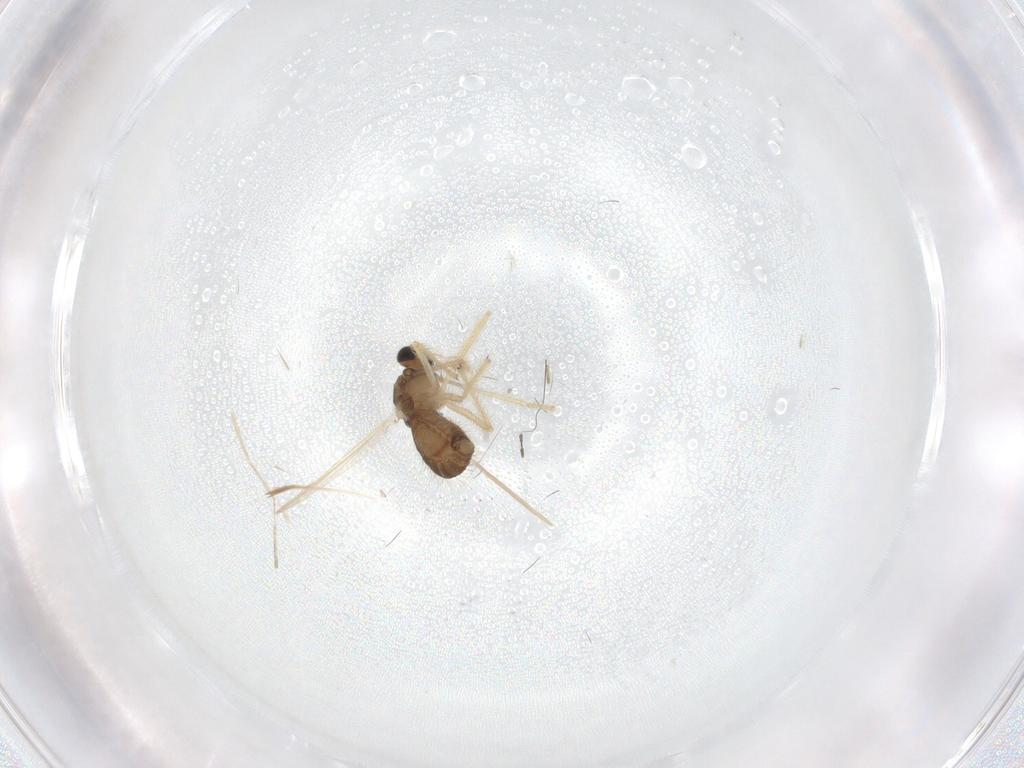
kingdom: Animalia
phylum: Arthropoda
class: Insecta
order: Diptera
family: Chironomidae
